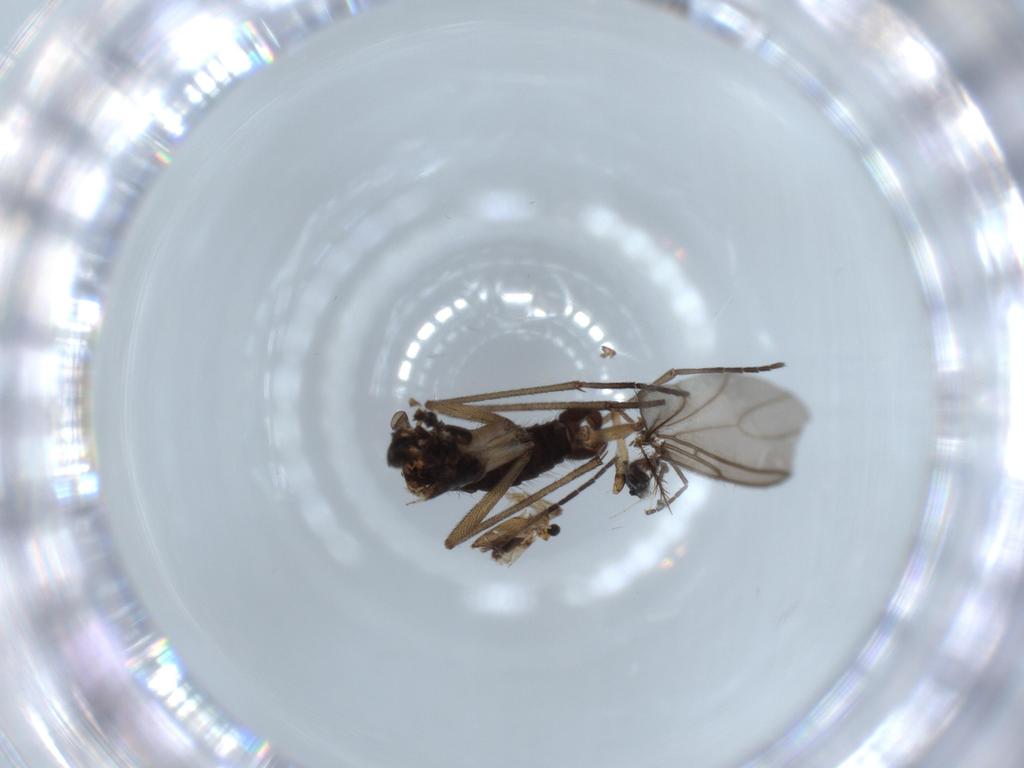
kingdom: Animalia
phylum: Arthropoda
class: Insecta
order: Diptera
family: Sciaridae
